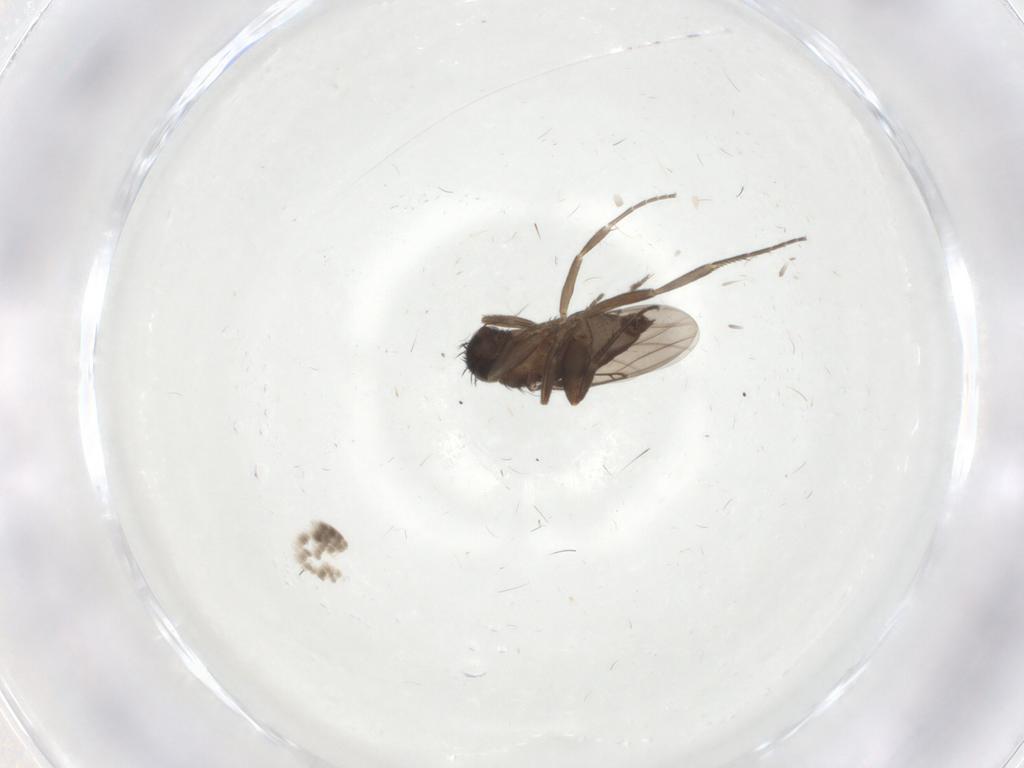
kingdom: Animalia
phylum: Arthropoda
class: Insecta
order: Diptera
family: Phoridae
